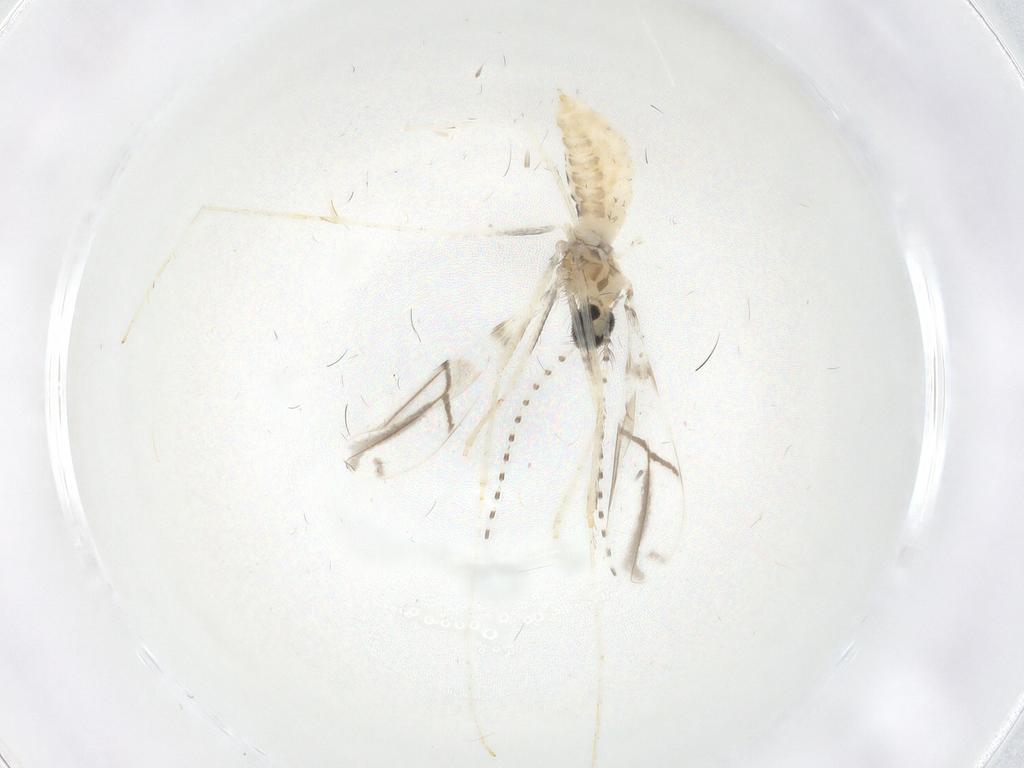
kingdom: Animalia
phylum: Arthropoda
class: Insecta
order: Diptera
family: Cecidomyiidae
